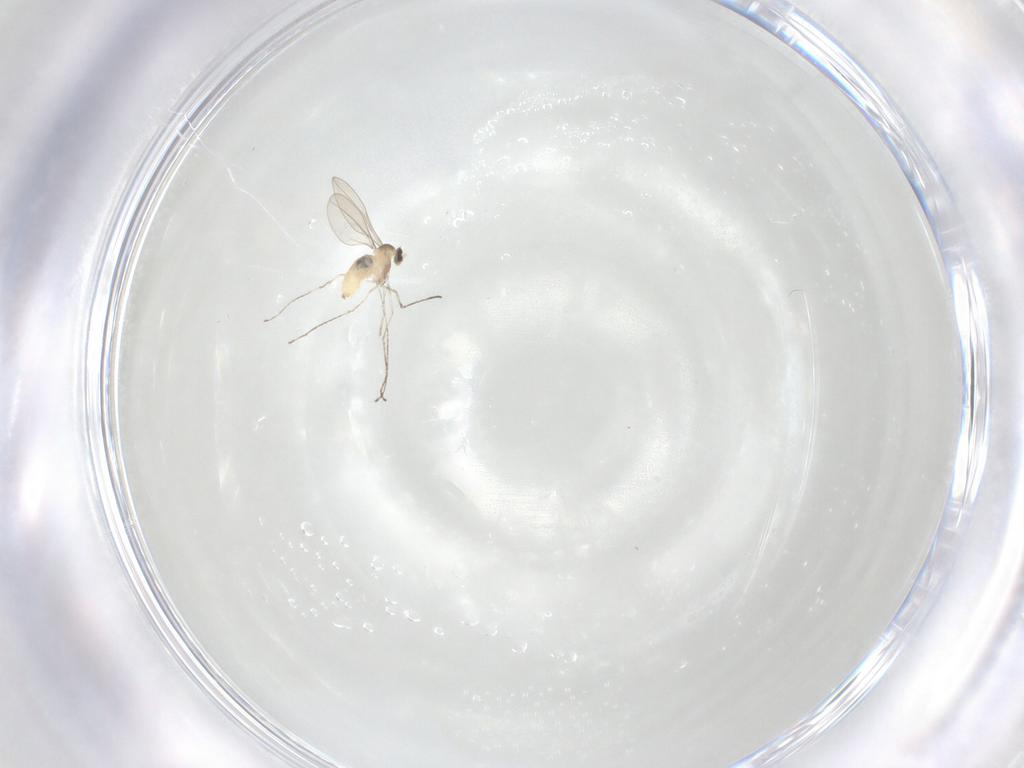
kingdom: Animalia
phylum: Arthropoda
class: Insecta
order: Diptera
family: Cecidomyiidae
